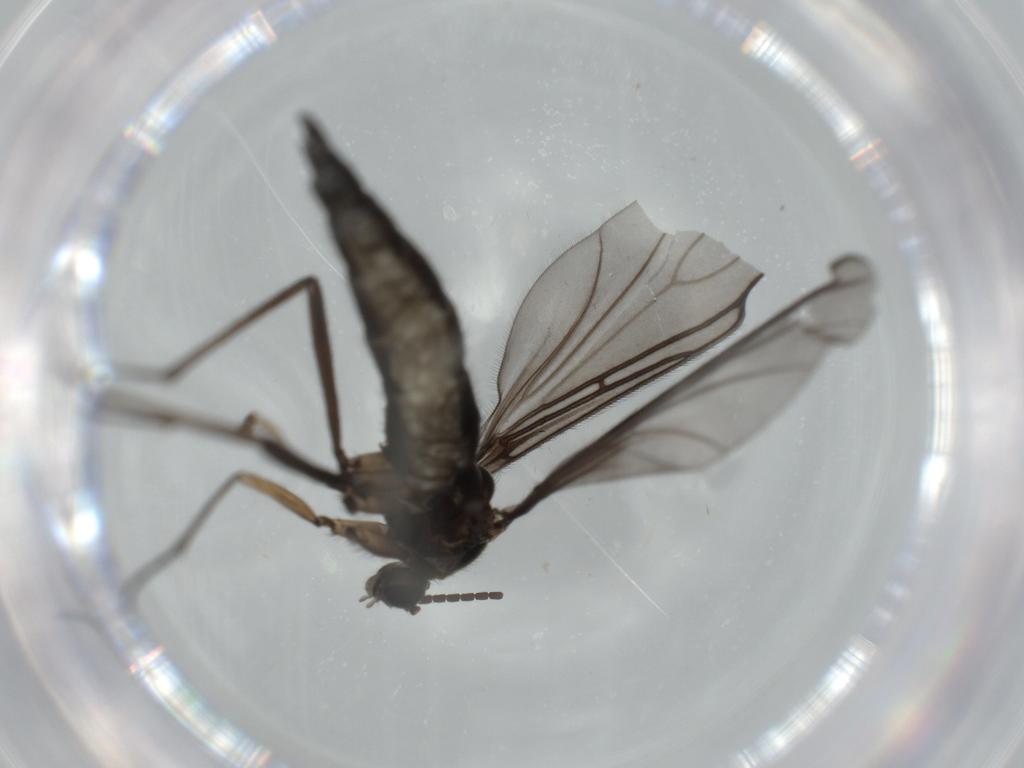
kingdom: Animalia
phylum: Arthropoda
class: Insecta
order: Diptera
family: Sciaridae
